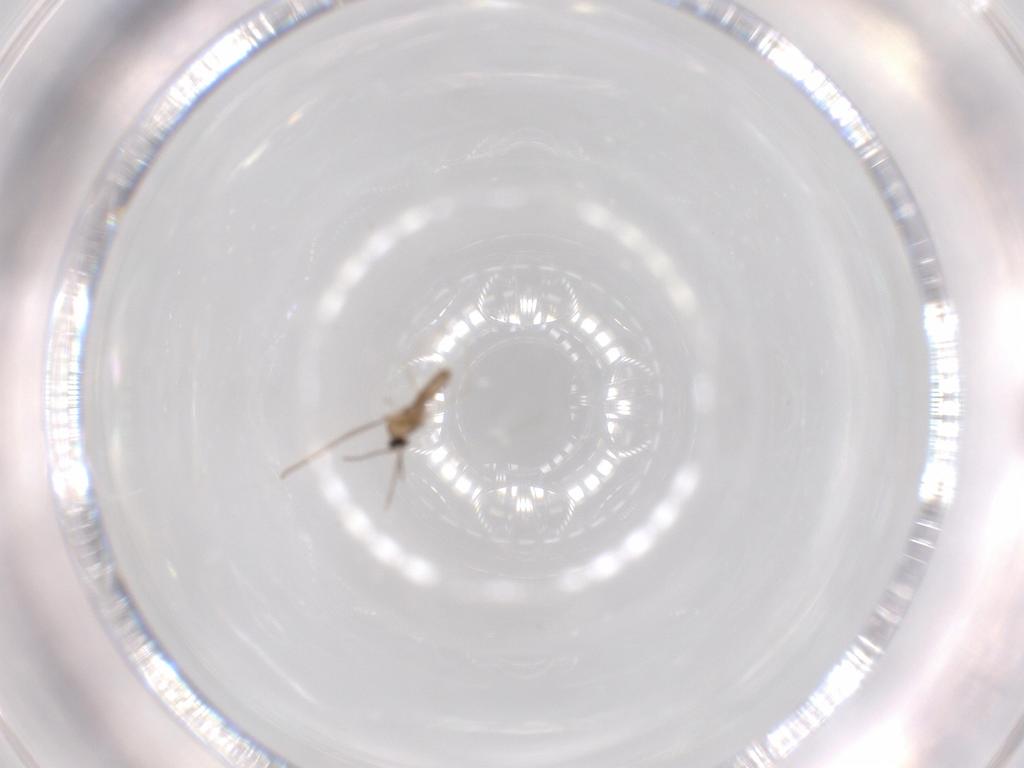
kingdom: Animalia
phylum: Arthropoda
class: Insecta
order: Diptera
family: Cecidomyiidae
